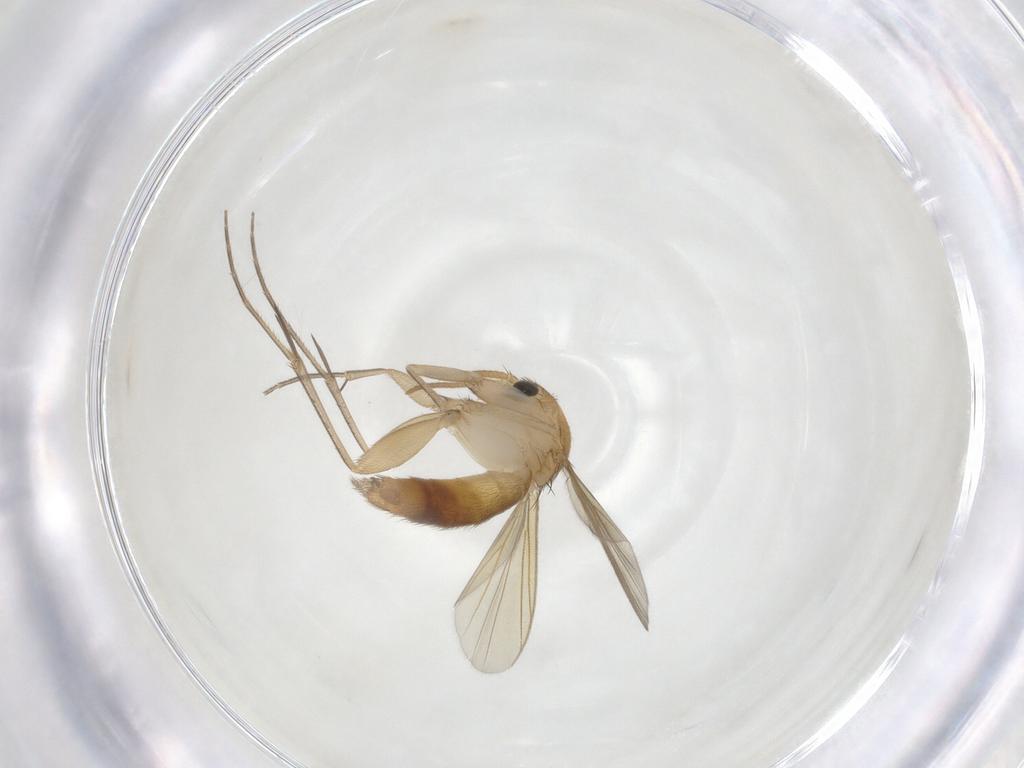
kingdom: Animalia
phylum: Arthropoda
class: Insecta
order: Diptera
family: Mycetophilidae
